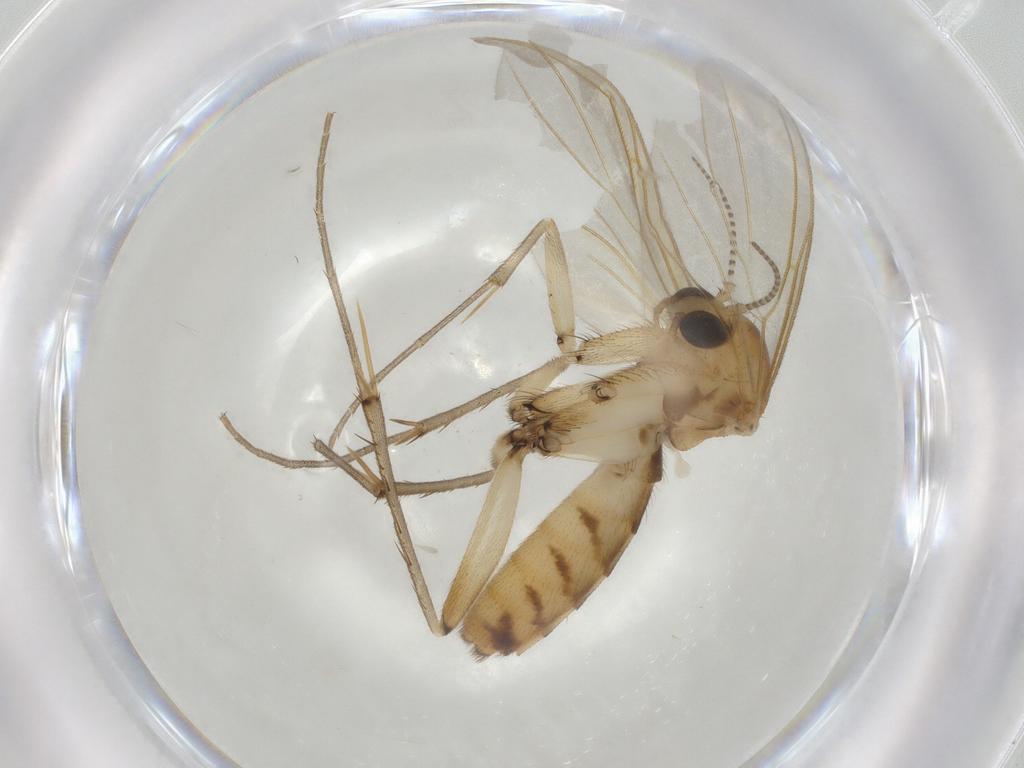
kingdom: Animalia
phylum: Arthropoda
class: Insecta
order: Diptera
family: Mycetophilidae
